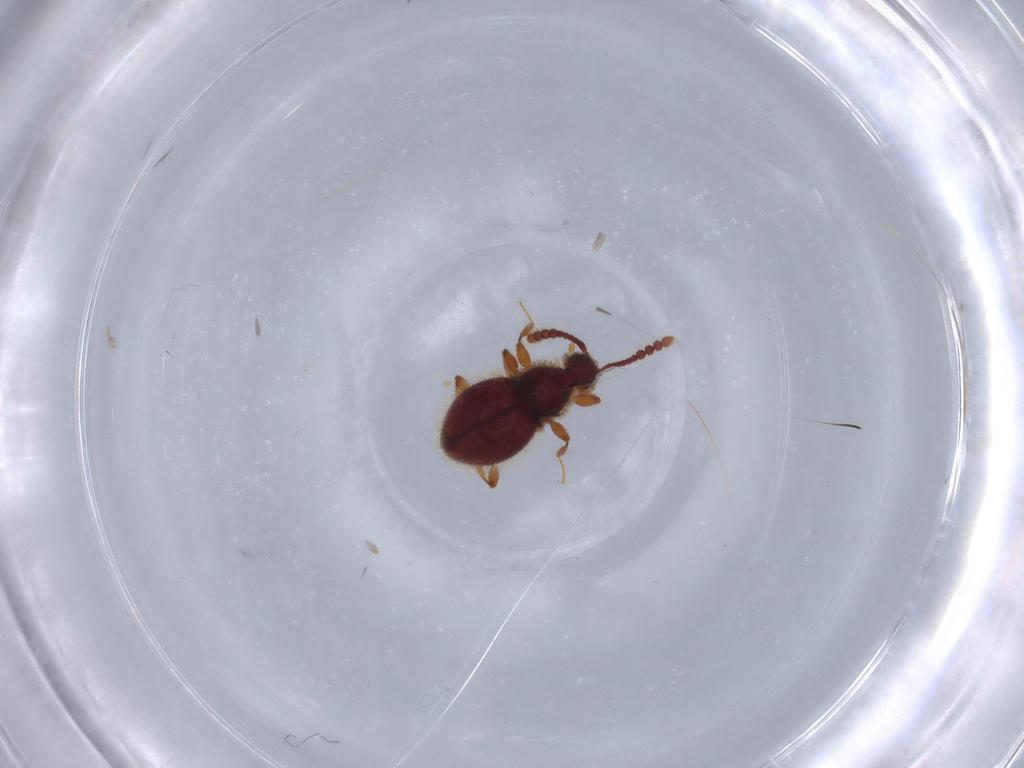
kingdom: Animalia
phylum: Arthropoda
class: Insecta
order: Coleoptera
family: Staphylinidae
